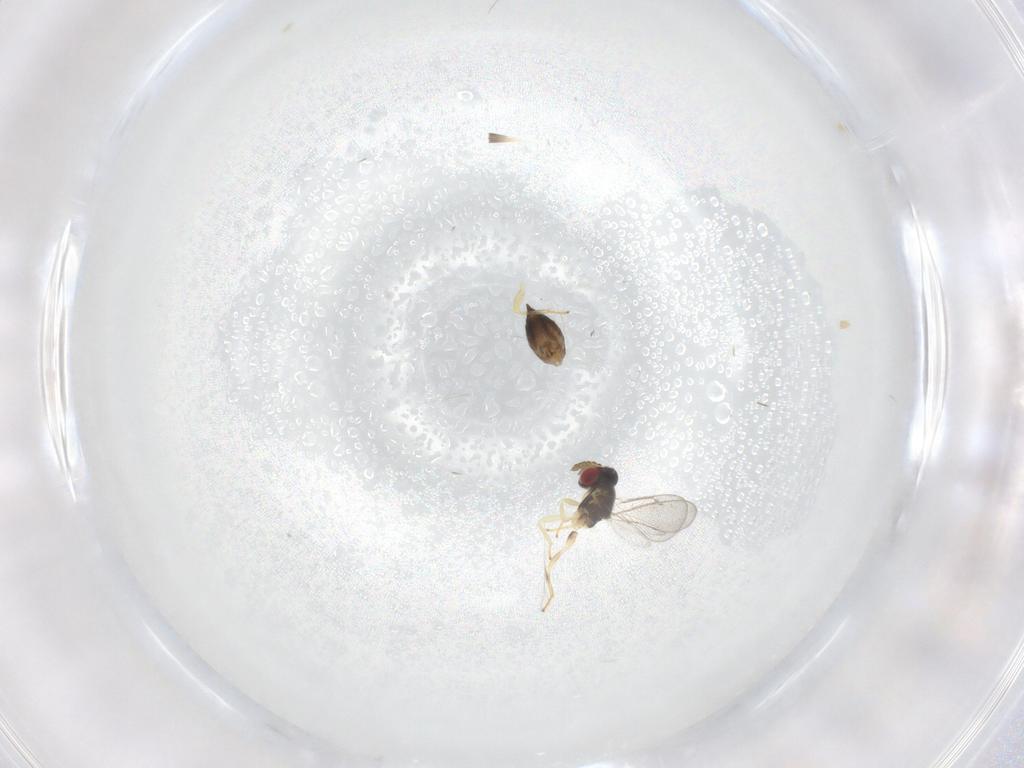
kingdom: Animalia
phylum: Arthropoda
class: Insecta
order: Hymenoptera
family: Eulophidae
